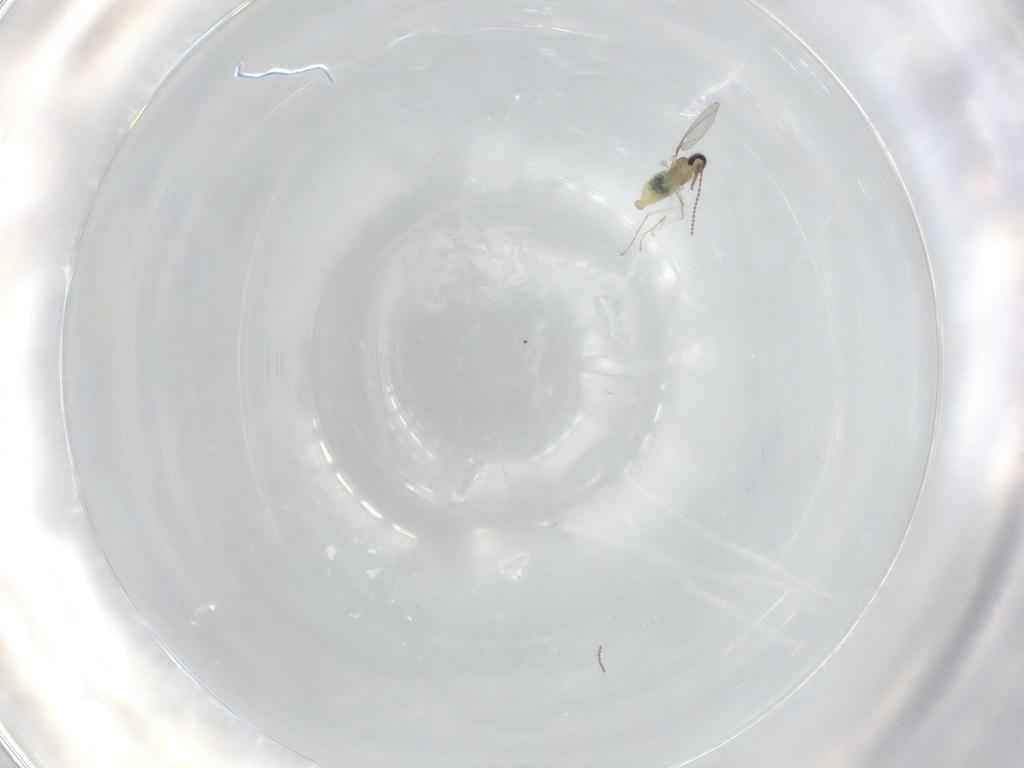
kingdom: Animalia
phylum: Arthropoda
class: Insecta
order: Diptera
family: Cecidomyiidae
